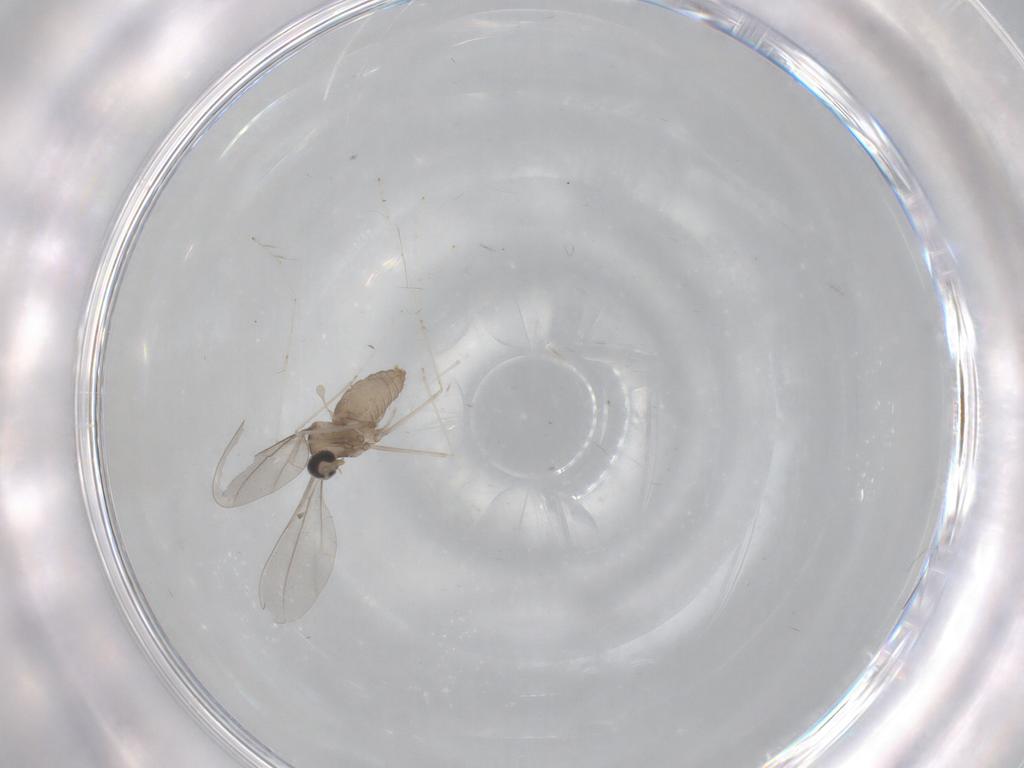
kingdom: Animalia
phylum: Arthropoda
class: Insecta
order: Diptera
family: Cecidomyiidae
